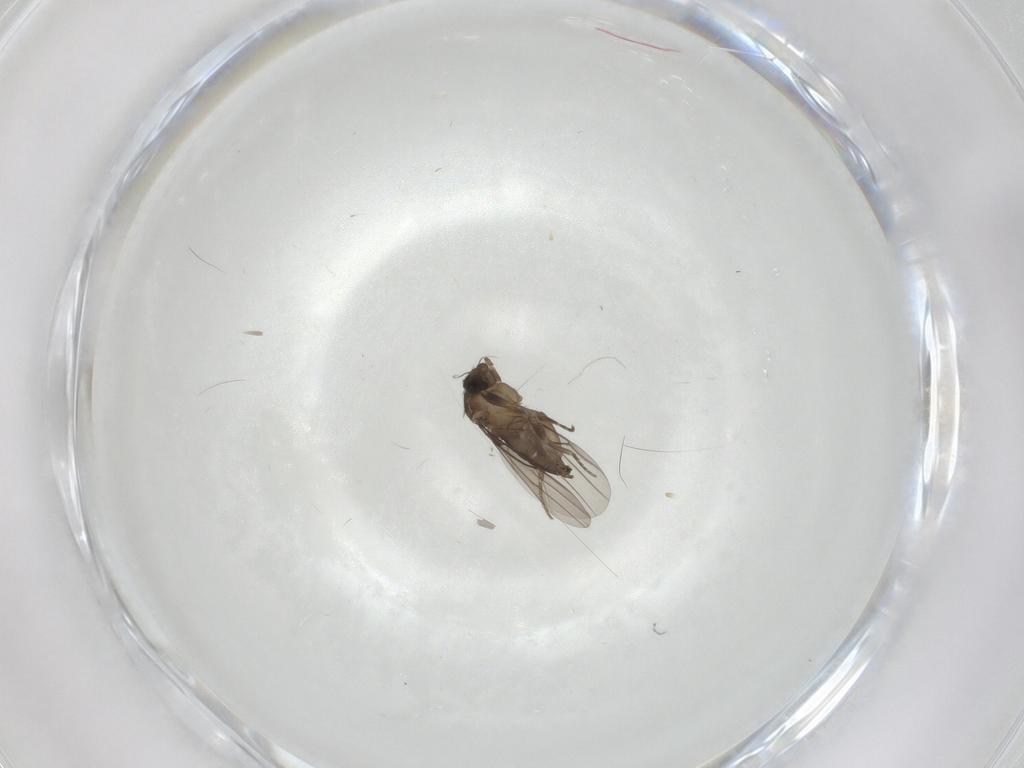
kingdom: Animalia
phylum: Arthropoda
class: Insecta
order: Diptera
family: Phoridae
